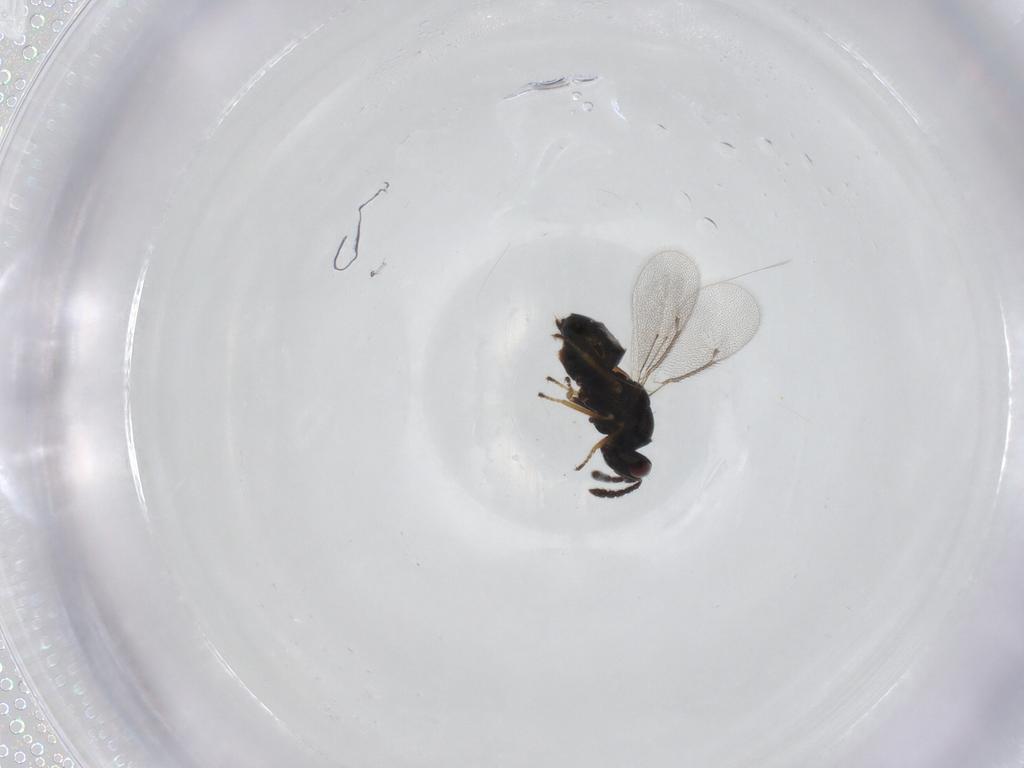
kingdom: Animalia
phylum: Arthropoda
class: Insecta
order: Hymenoptera
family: Eulophidae
